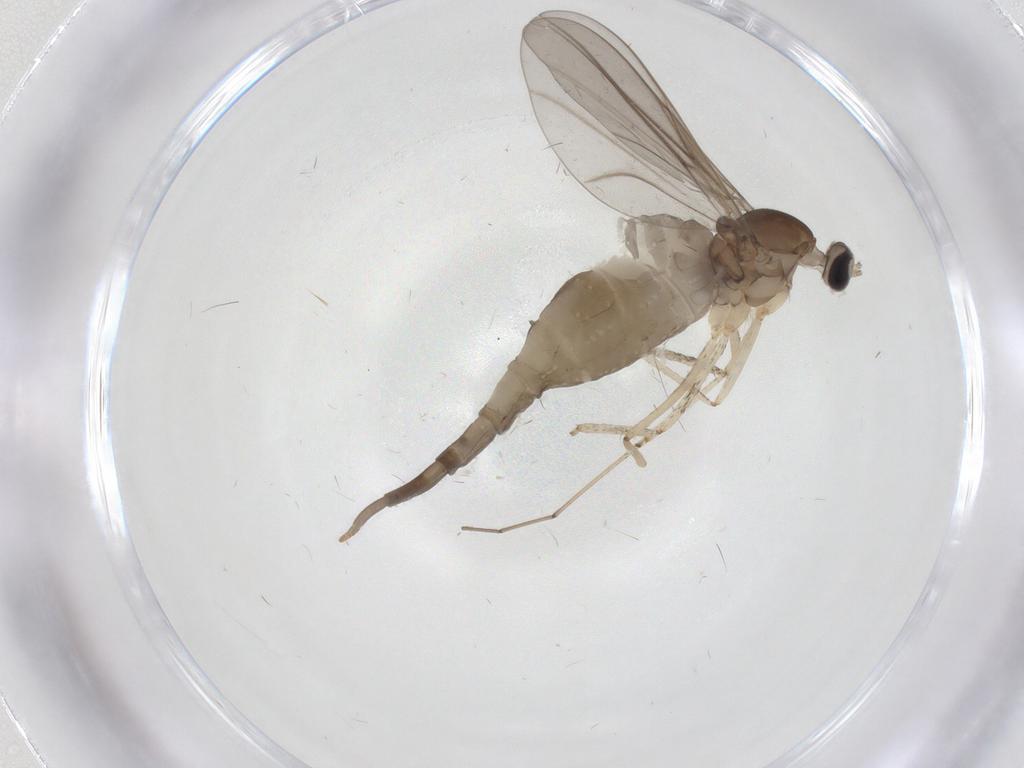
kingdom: Animalia
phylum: Arthropoda
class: Insecta
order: Diptera
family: Cecidomyiidae
